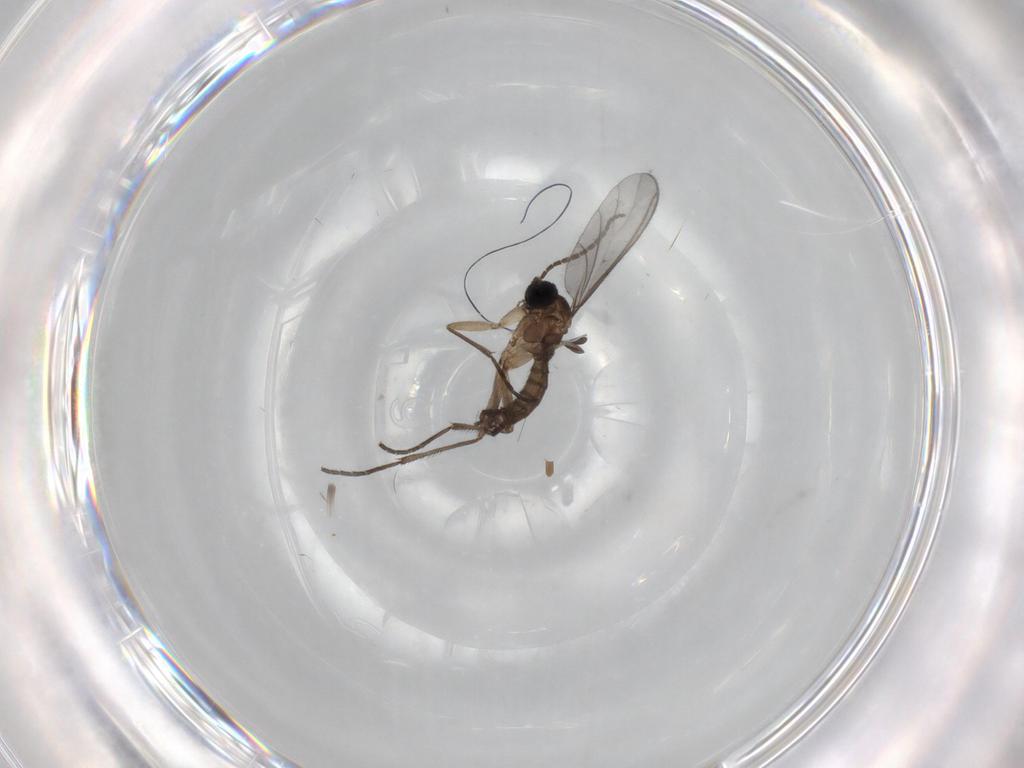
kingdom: Animalia
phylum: Arthropoda
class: Insecta
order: Diptera
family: Sciaridae
